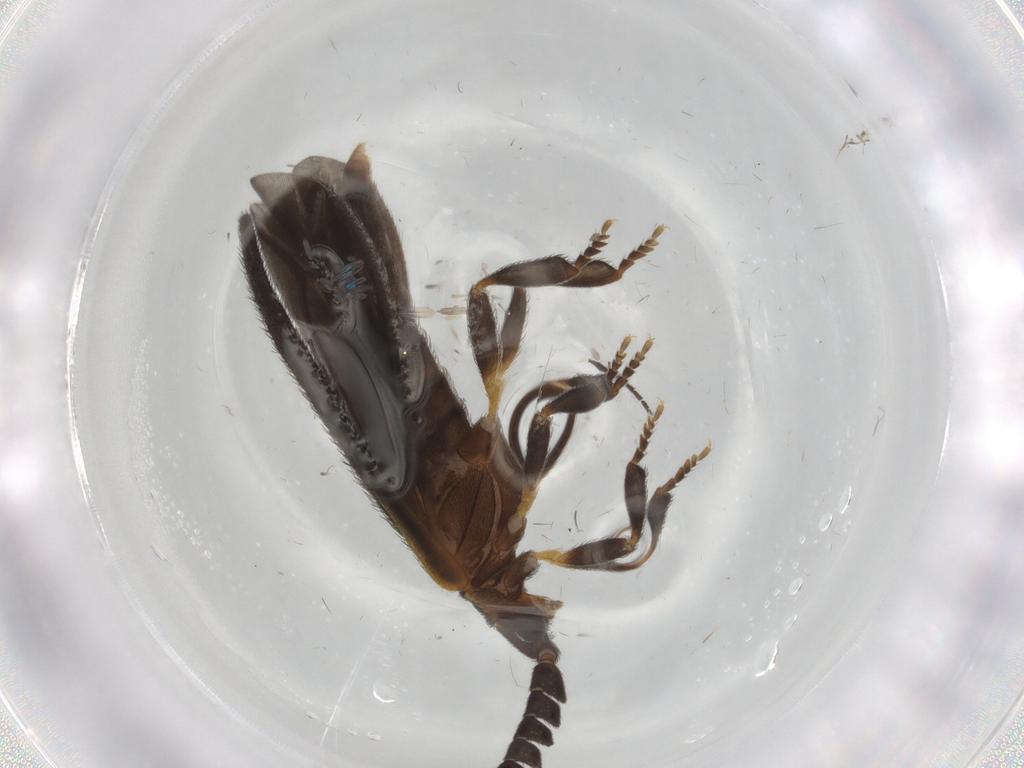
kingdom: Animalia
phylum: Arthropoda
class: Insecta
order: Coleoptera
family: Lycidae
